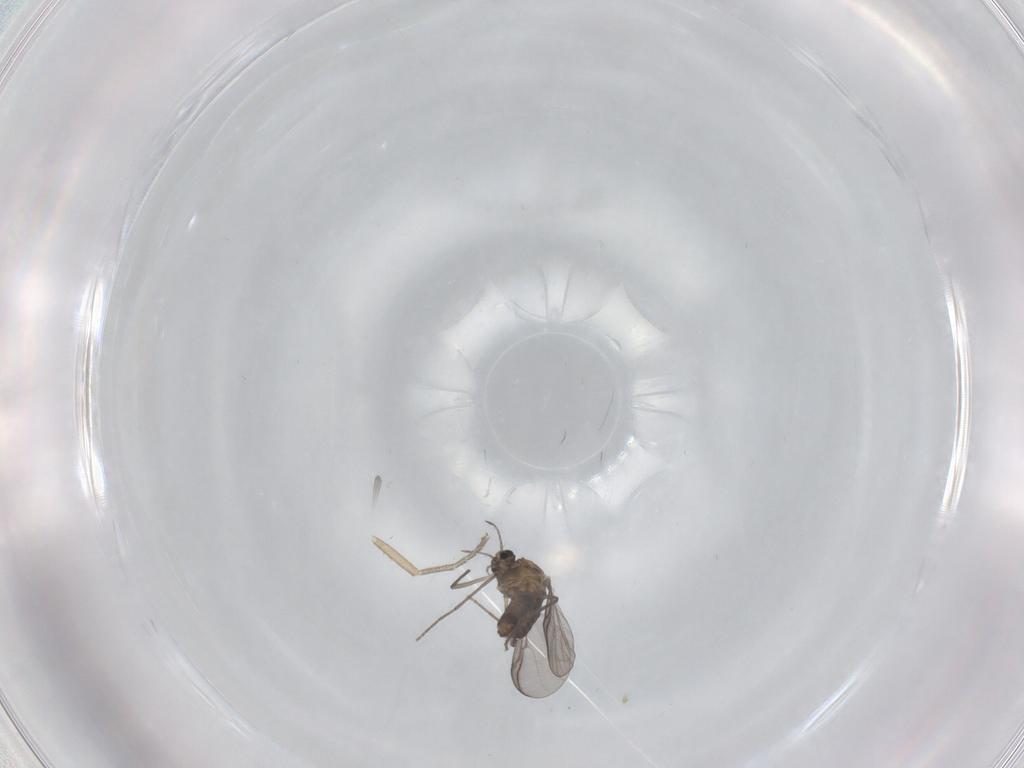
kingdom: Animalia
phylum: Arthropoda
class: Insecta
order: Diptera
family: Chironomidae
